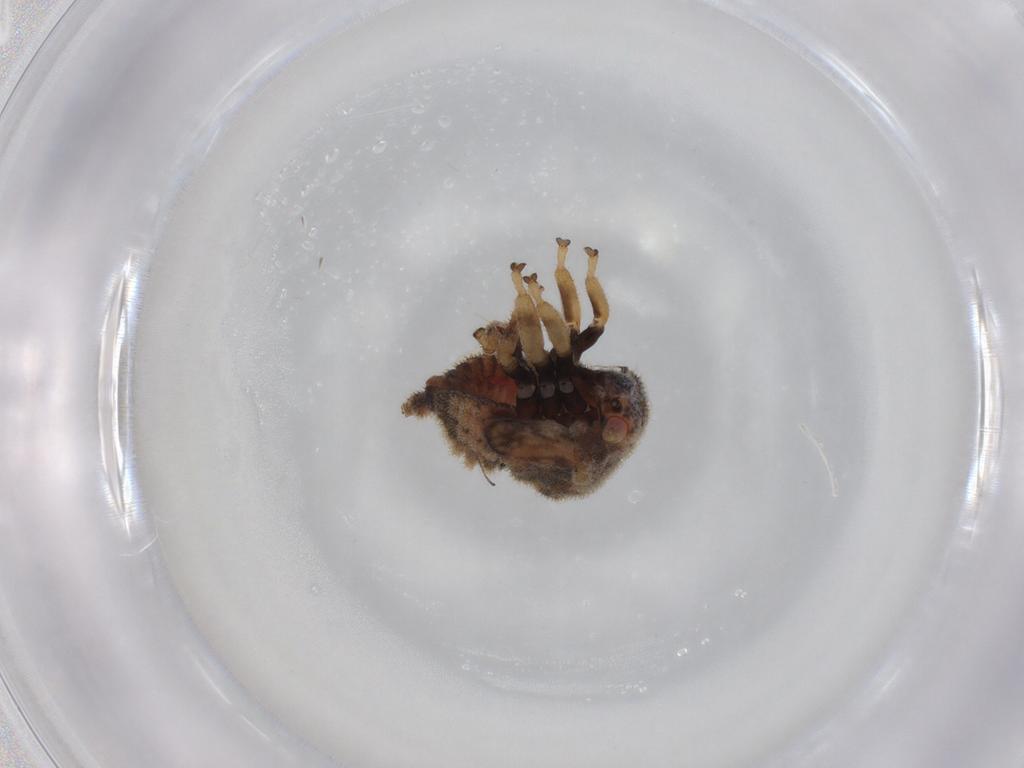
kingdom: Animalia
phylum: Arthropoda
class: Insecta
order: Hemiptera
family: Membracidae
